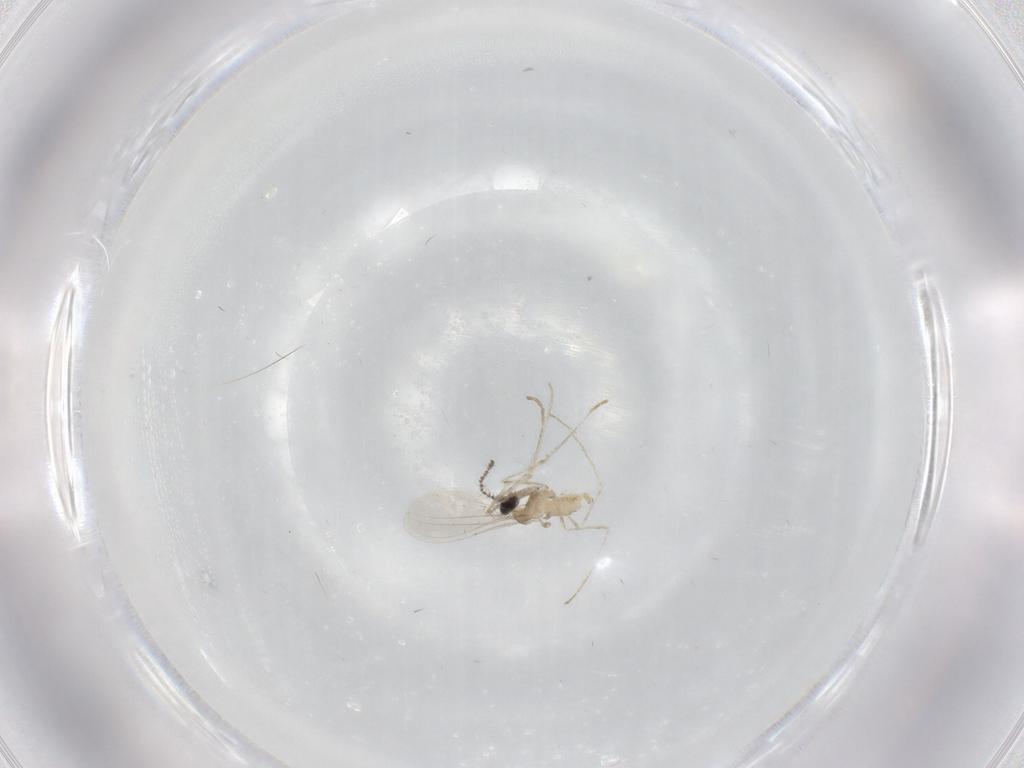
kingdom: Animalia
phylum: Arthropoda
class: Insecta
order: Diptera
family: Cecidomyiidae
